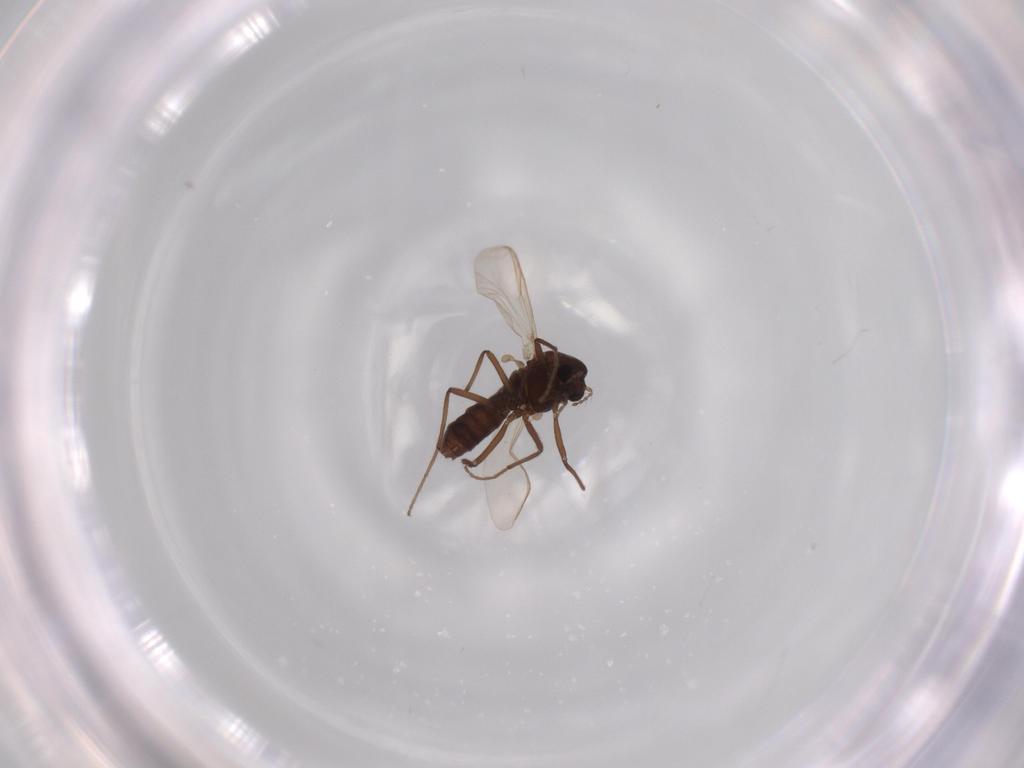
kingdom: Animalia
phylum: Arthropoda
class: Insecta
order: Diptera
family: Chironomidae
